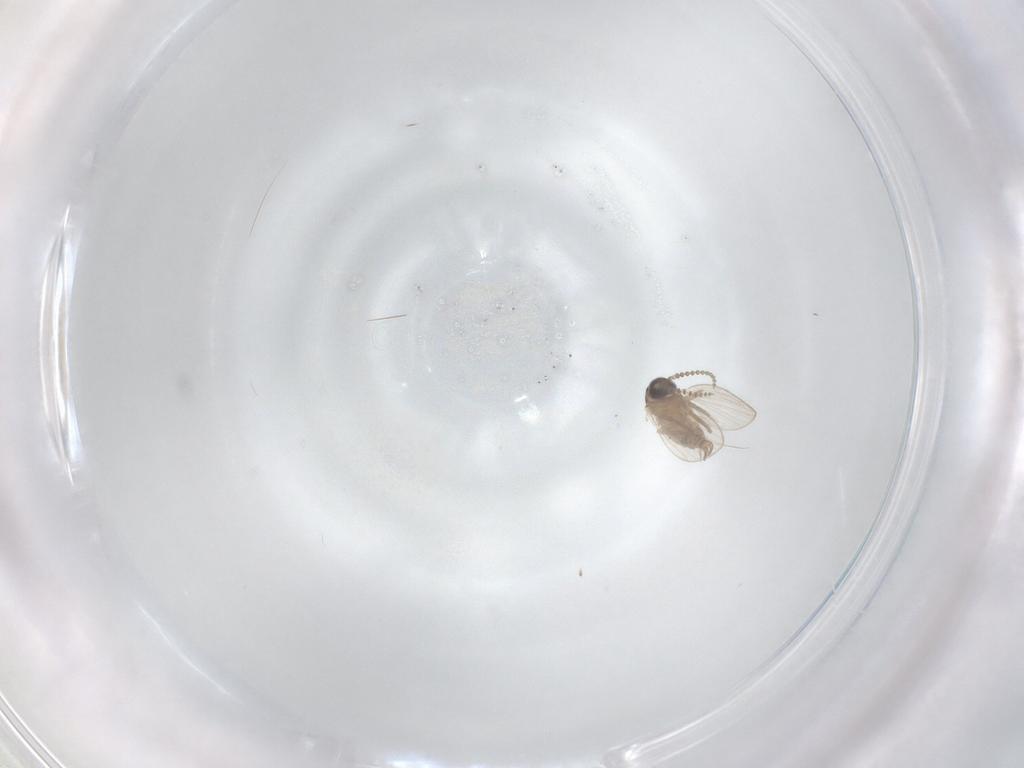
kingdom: Animalia
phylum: Arthropoda
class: Insecta
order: Diptera
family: Psychodidae
